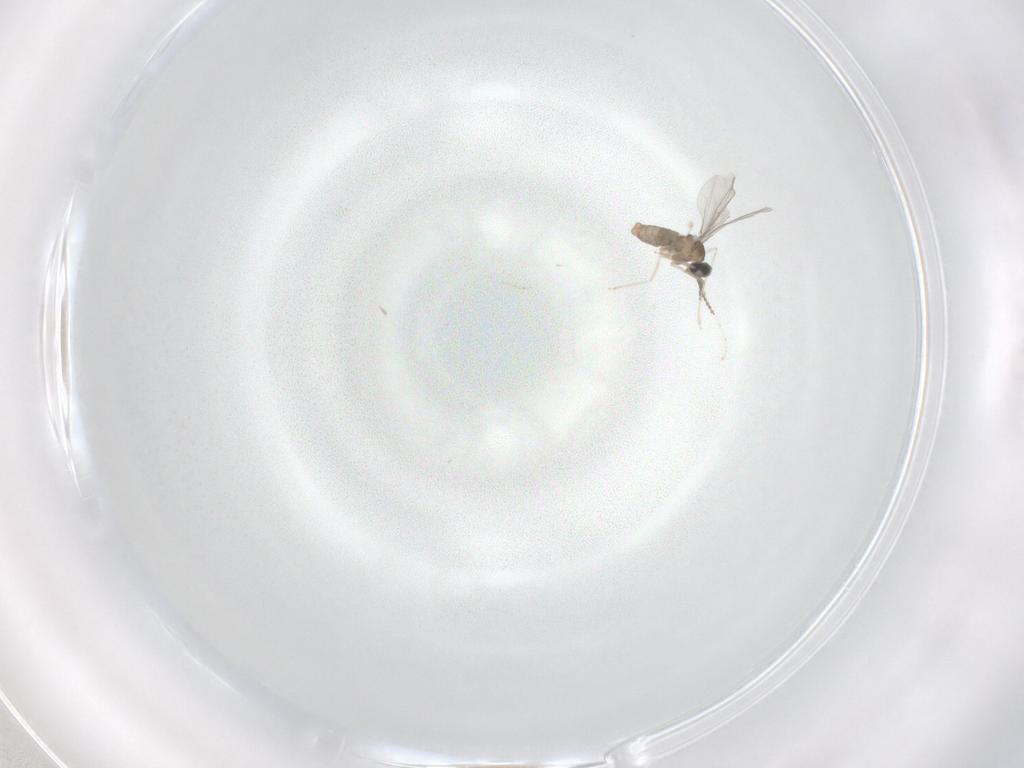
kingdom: Animalia
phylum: Arthropoda
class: Insecta
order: Diptera
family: Cecidomyiidae
